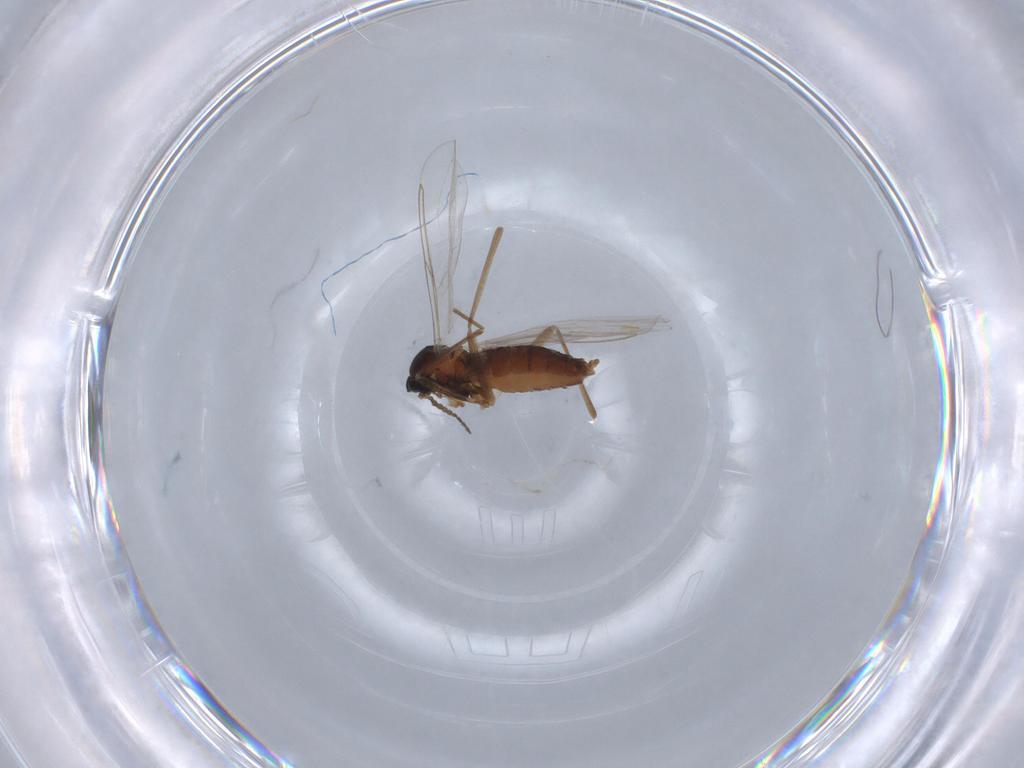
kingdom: Animalia
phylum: Arthropoda
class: Insecta
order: Diptera
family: Cecidomyiidae
